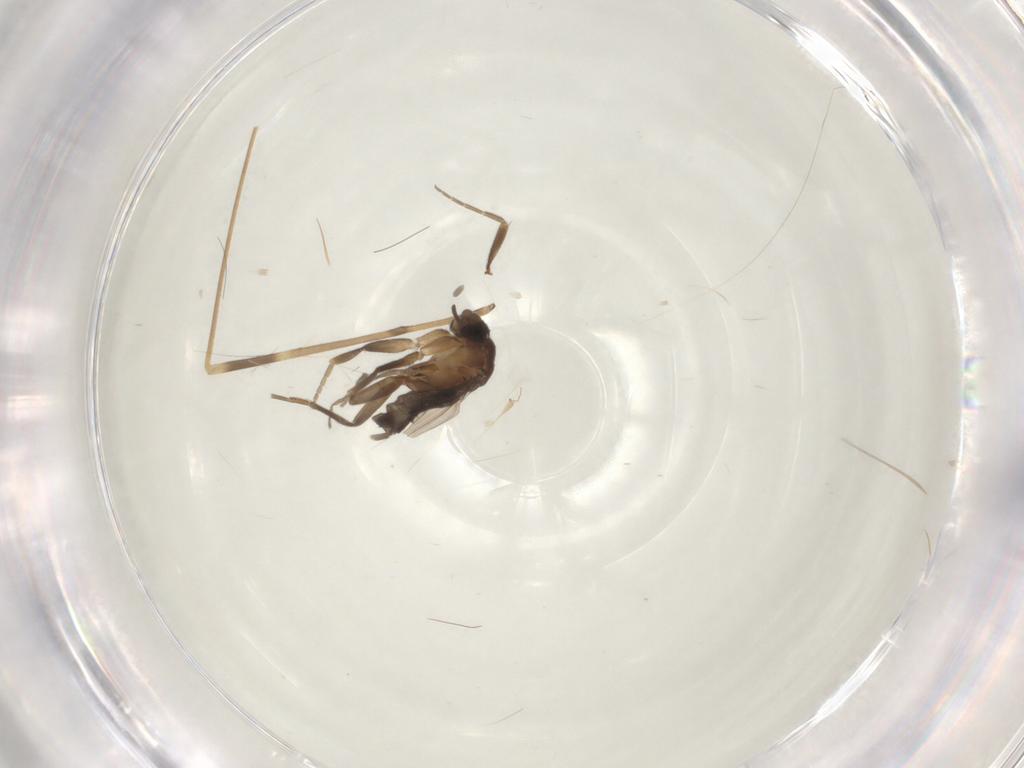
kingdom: Animalia
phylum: Arthropoda
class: Insecta
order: Diptera
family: Limoniidae
